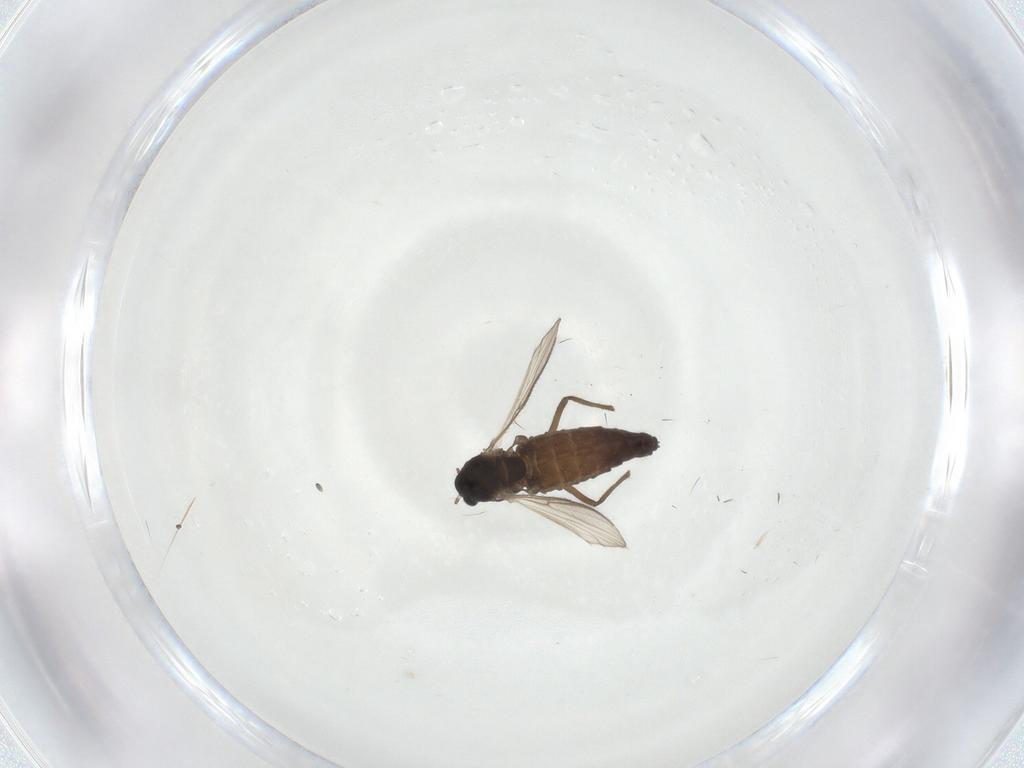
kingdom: Animalia
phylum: Arthropoda
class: Insecta
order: Diptera
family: Chironomidae
